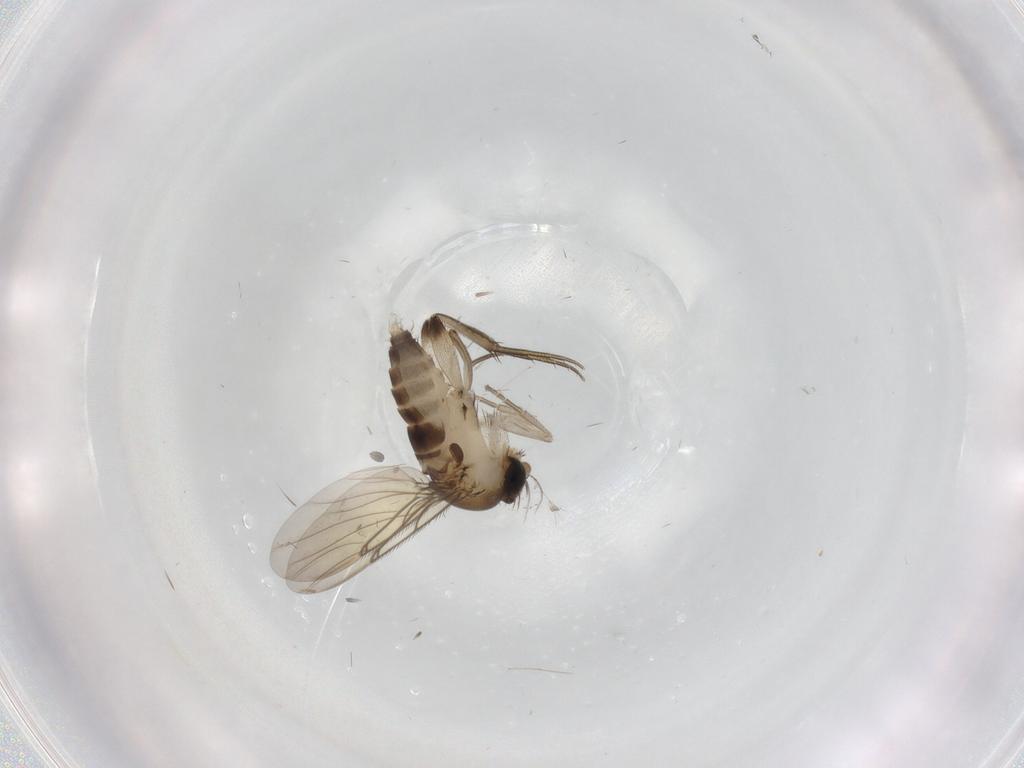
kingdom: Animalia
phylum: Arthropoda
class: Insecta
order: Diptera
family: Phoridae
